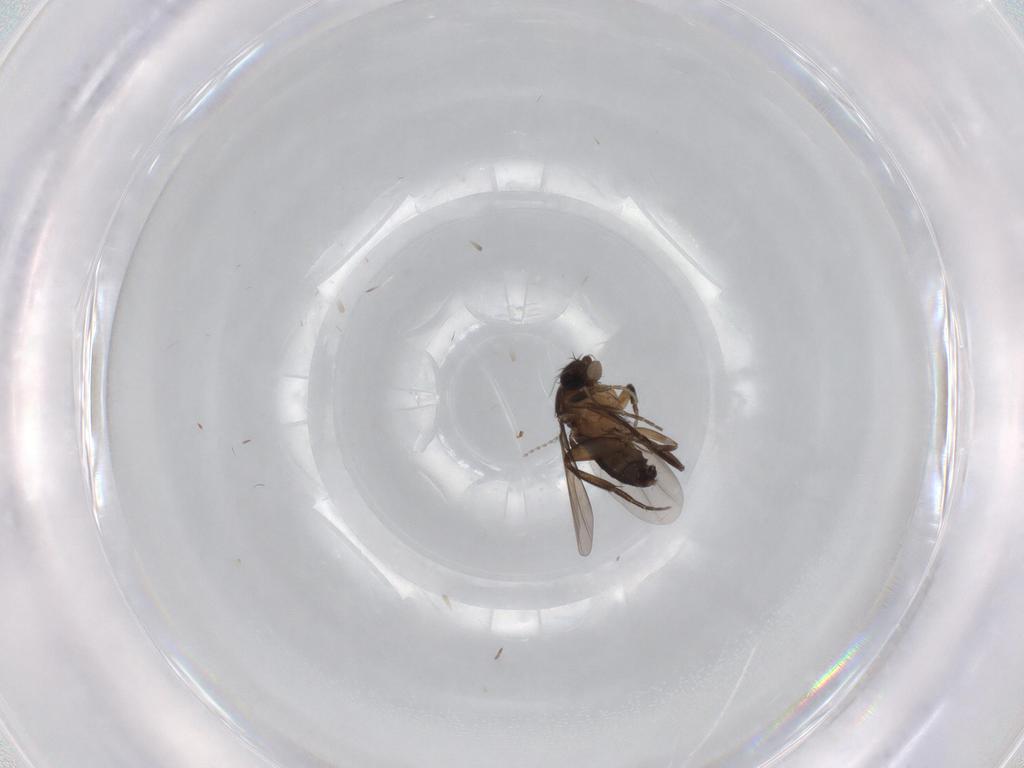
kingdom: Animalia
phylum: Arthropoda
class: Insecta
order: Diptera
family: Phoridae
